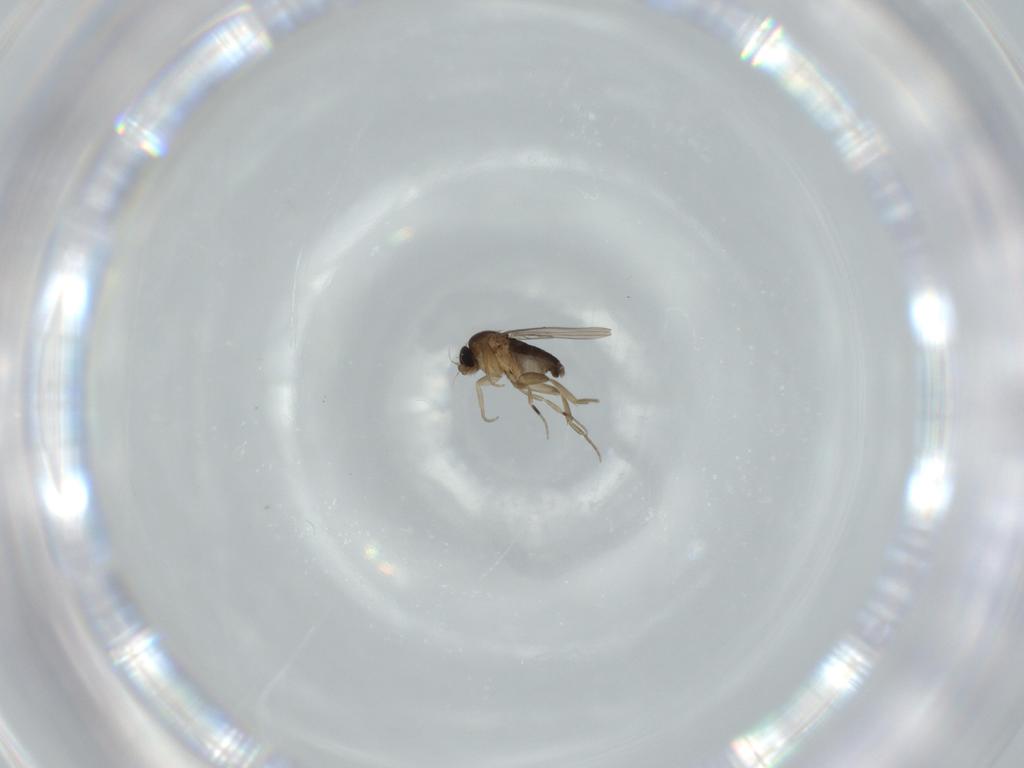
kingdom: Animalia
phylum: Arthropoda
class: Insecta
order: Diptera
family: Phoridae
